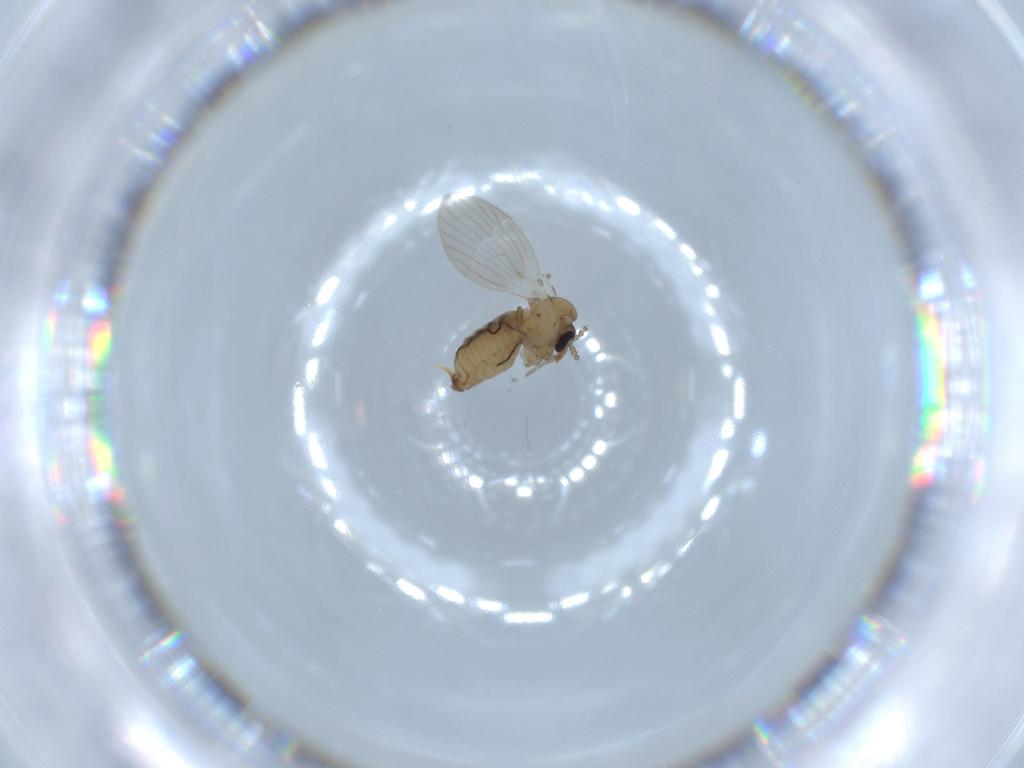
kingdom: Animalia
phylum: Arthropoda
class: Insecta
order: Diptera
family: Psychodidae
